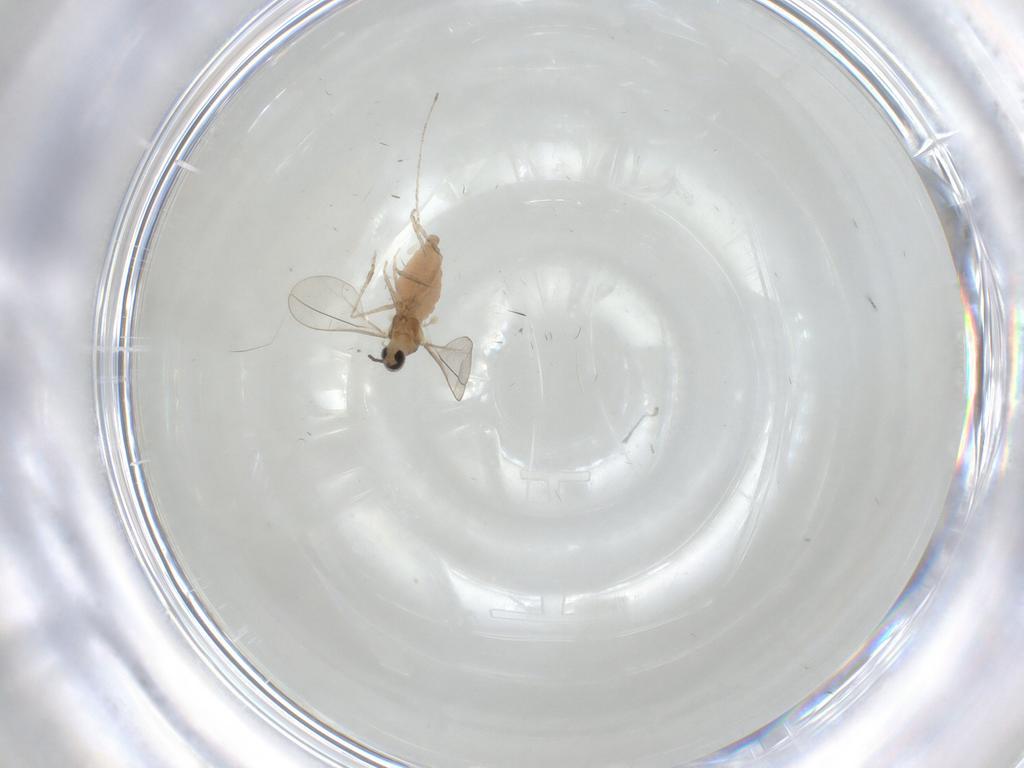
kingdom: Animalia
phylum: Arthropoda
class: Insecta
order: Diptera
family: Cecidomyiidae
